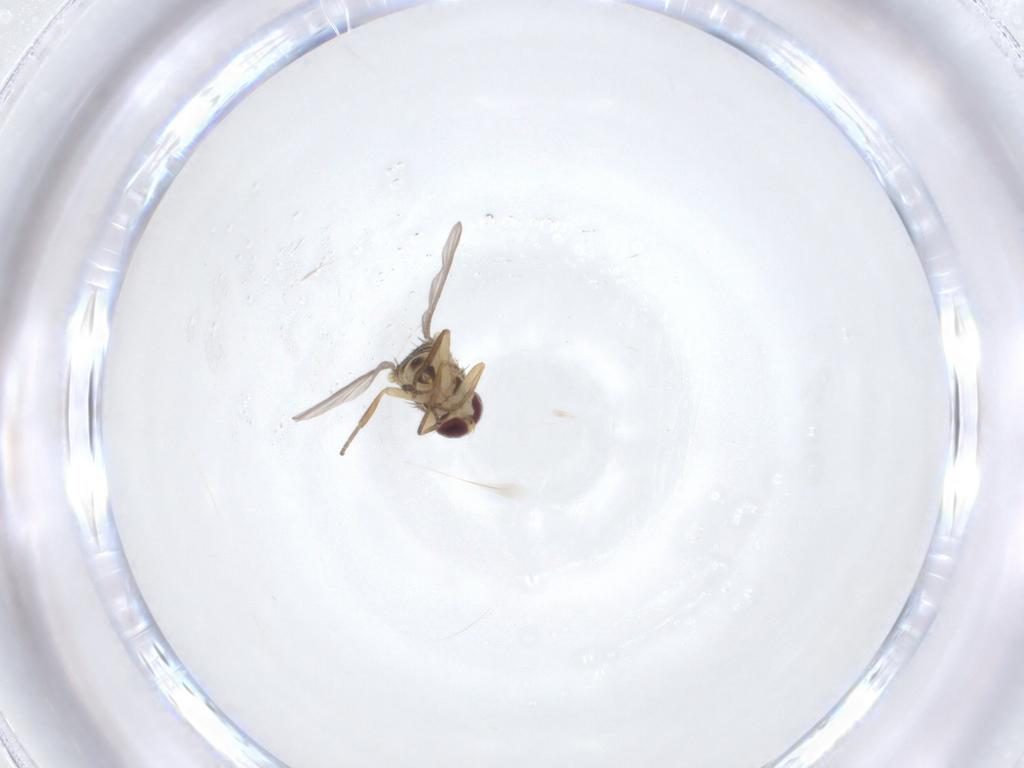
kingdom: Animalia
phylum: Arthropoda
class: Insecta
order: Diptera
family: Agromyzidae
